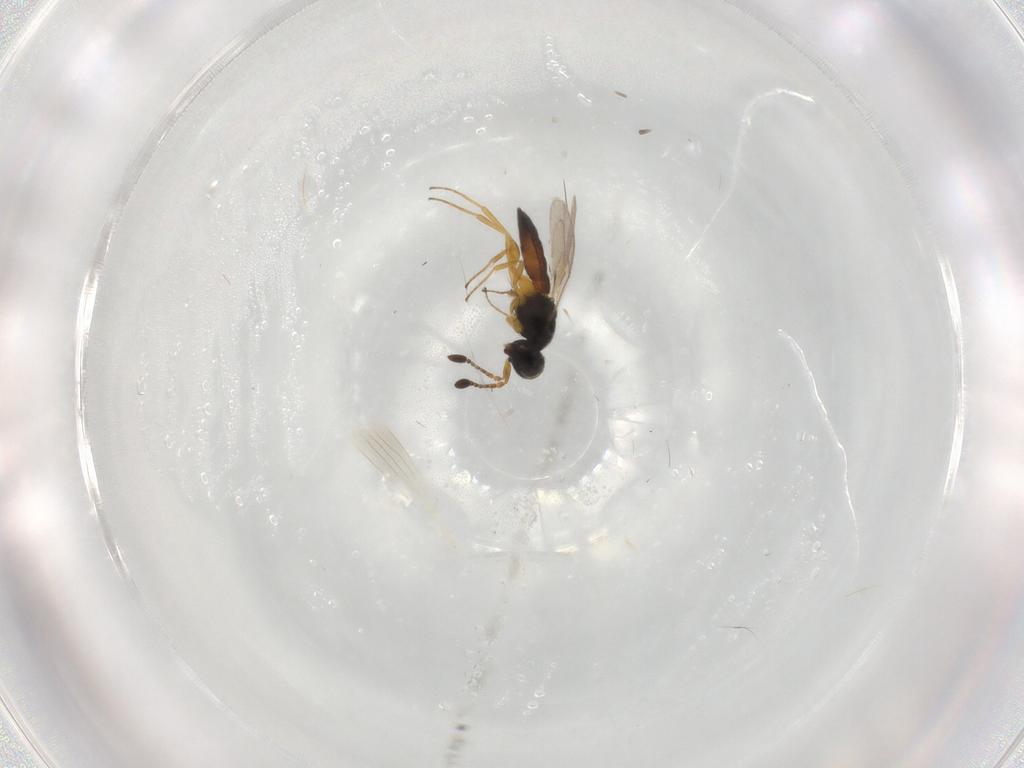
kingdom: Animalia
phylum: Arthropoda
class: Insecta
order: Hymenoptera
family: Scelionidae
